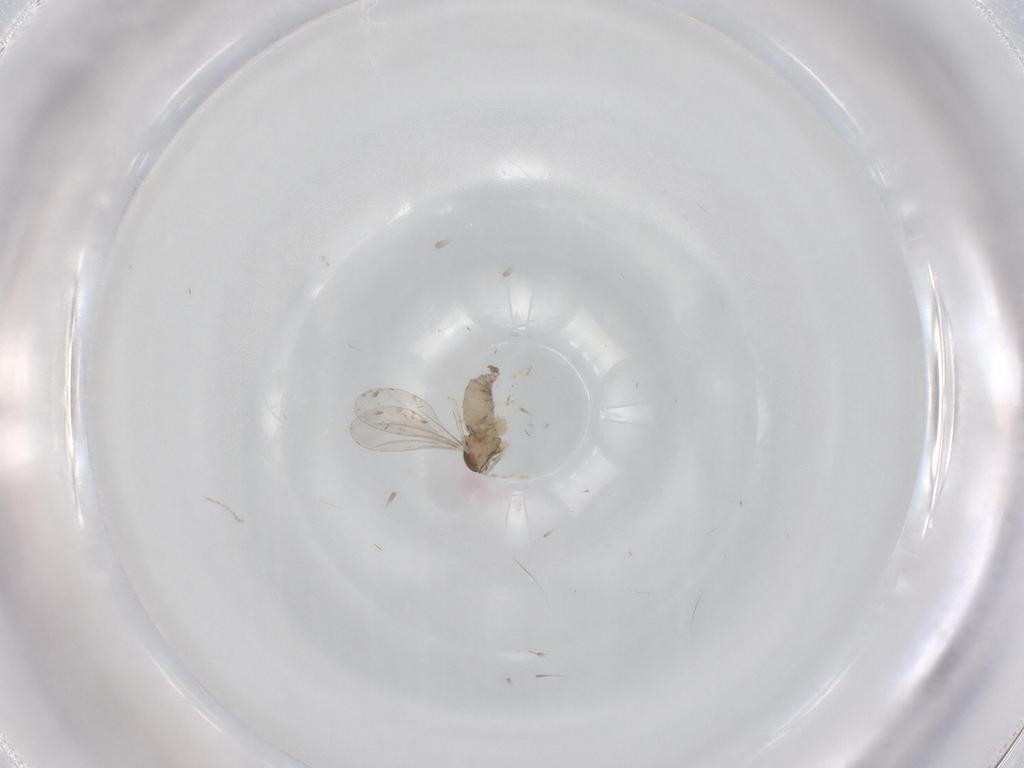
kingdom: Animalia
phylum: Arthropoda
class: Insecta
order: Diptera
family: Cecidomyiidae
